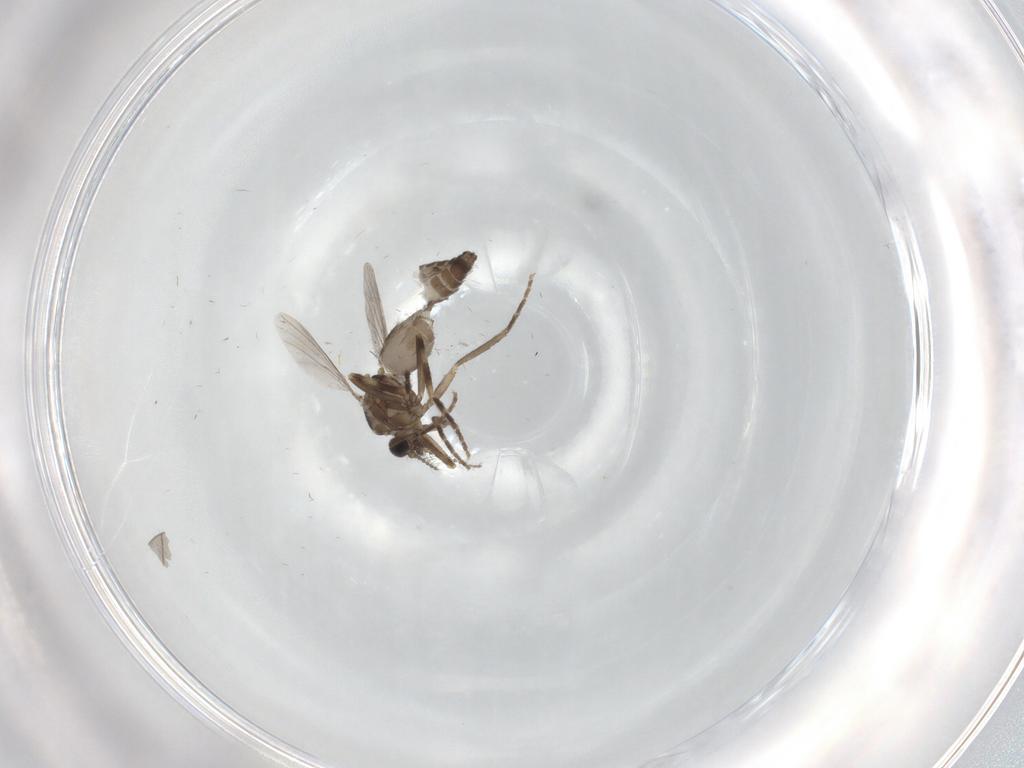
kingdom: Animalia
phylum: Arthropoda
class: Insecta
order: Diptera
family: Ceratopogonidae
